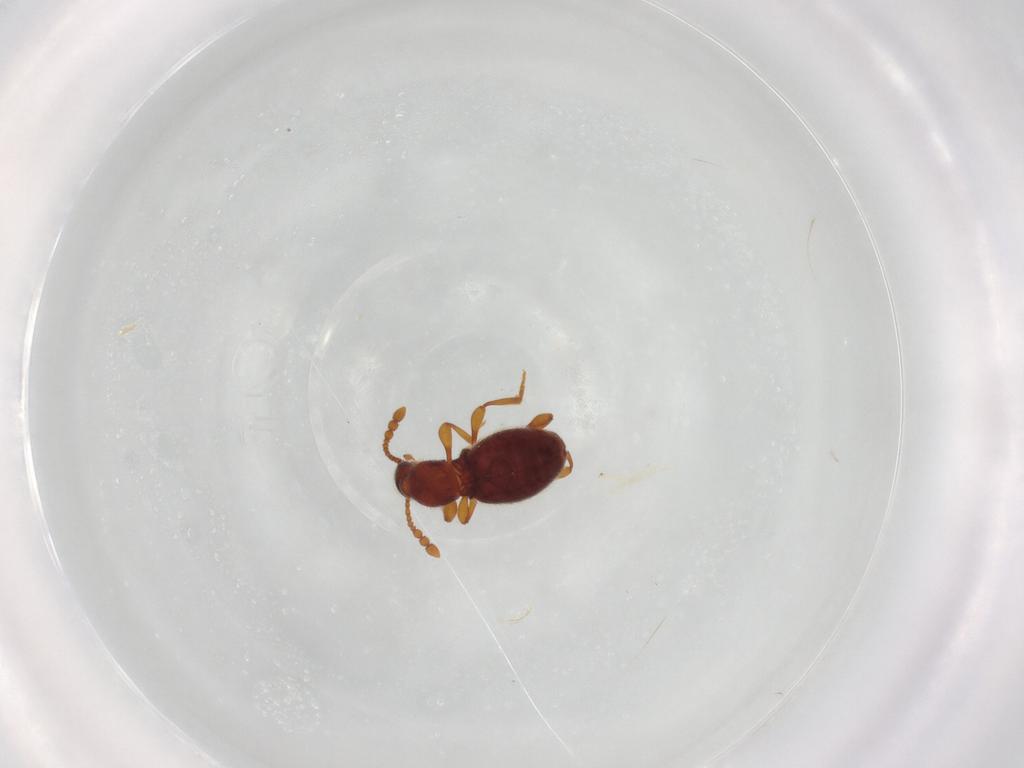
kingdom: Animalia
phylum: Arthropoda
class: Insecta
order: Coleoptera
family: Staphylinidae
